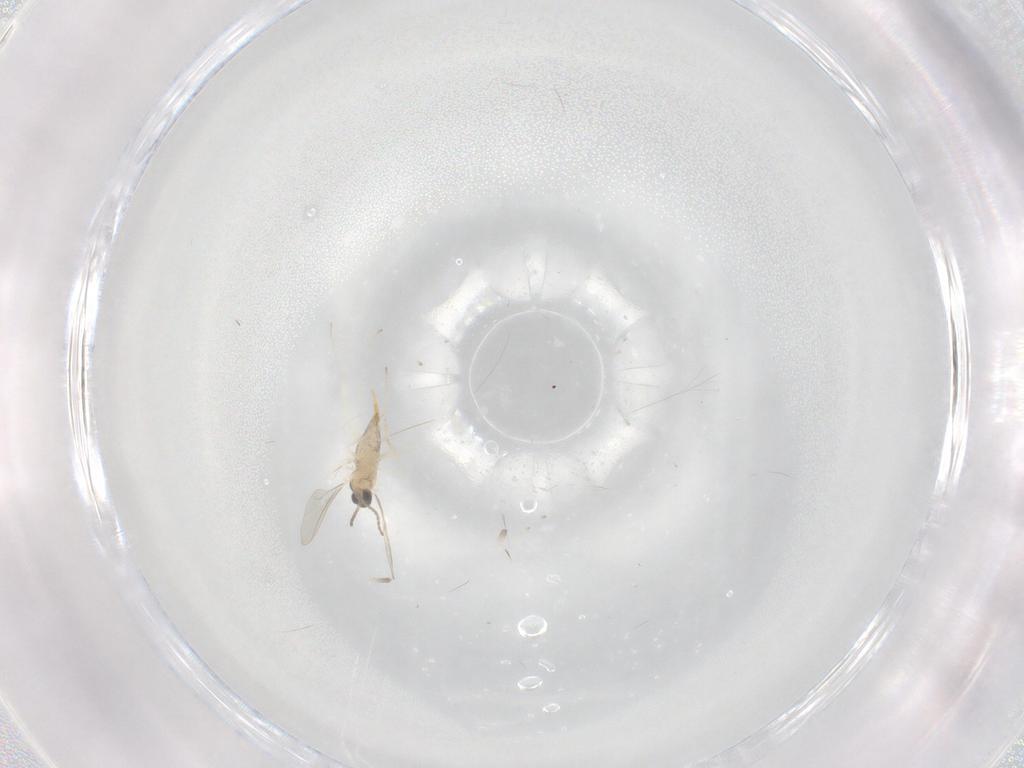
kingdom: Animalia
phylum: Arthropoda
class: Insecta
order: Diptera
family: Cecidomyiidae
